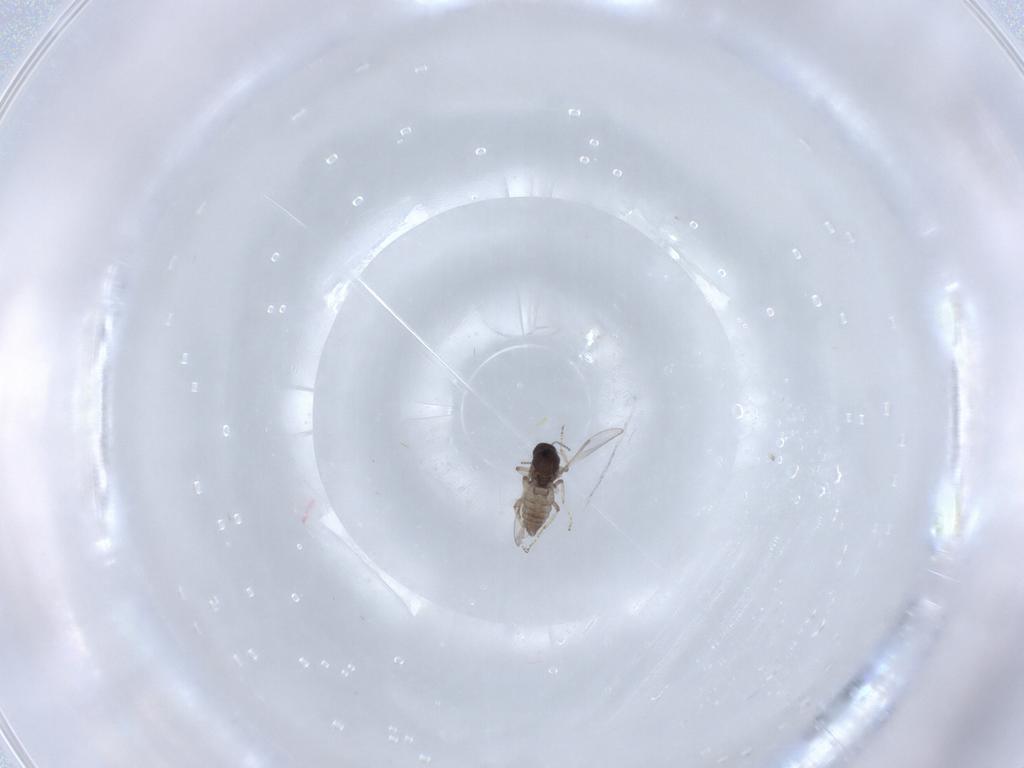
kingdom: Animalia
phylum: Arthropoda
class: Insecta
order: Diptera
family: Ceratopogonidae
